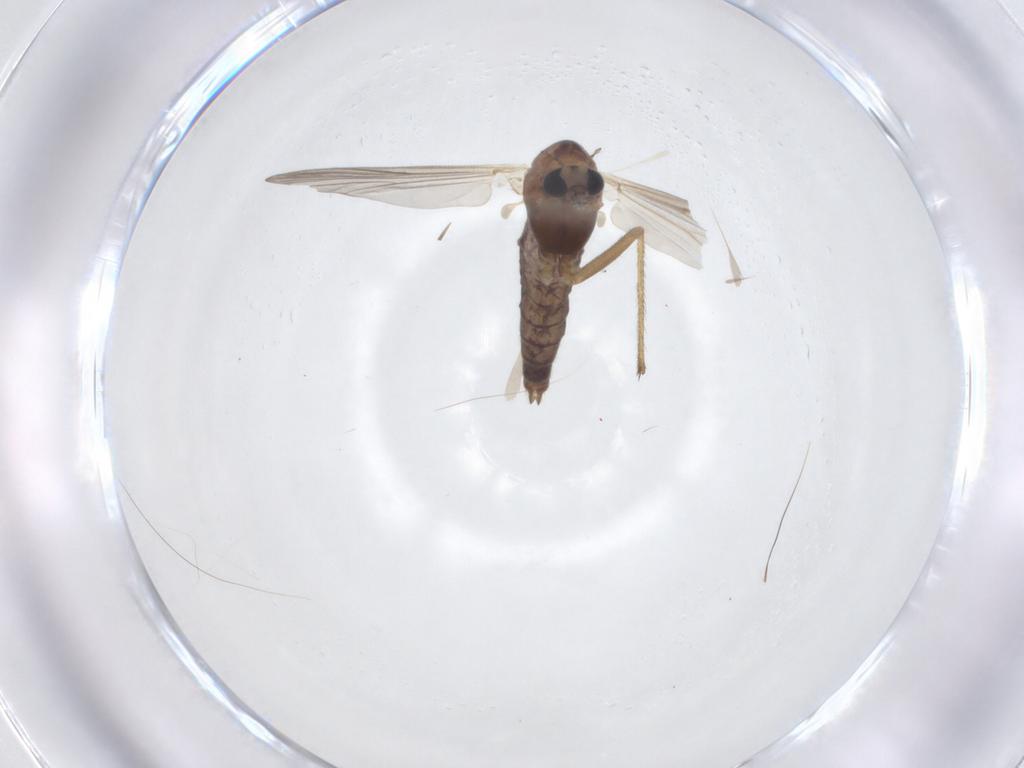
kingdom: Animalia
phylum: Arthropoda
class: Insecta
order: Diptera
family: Chironomidae
